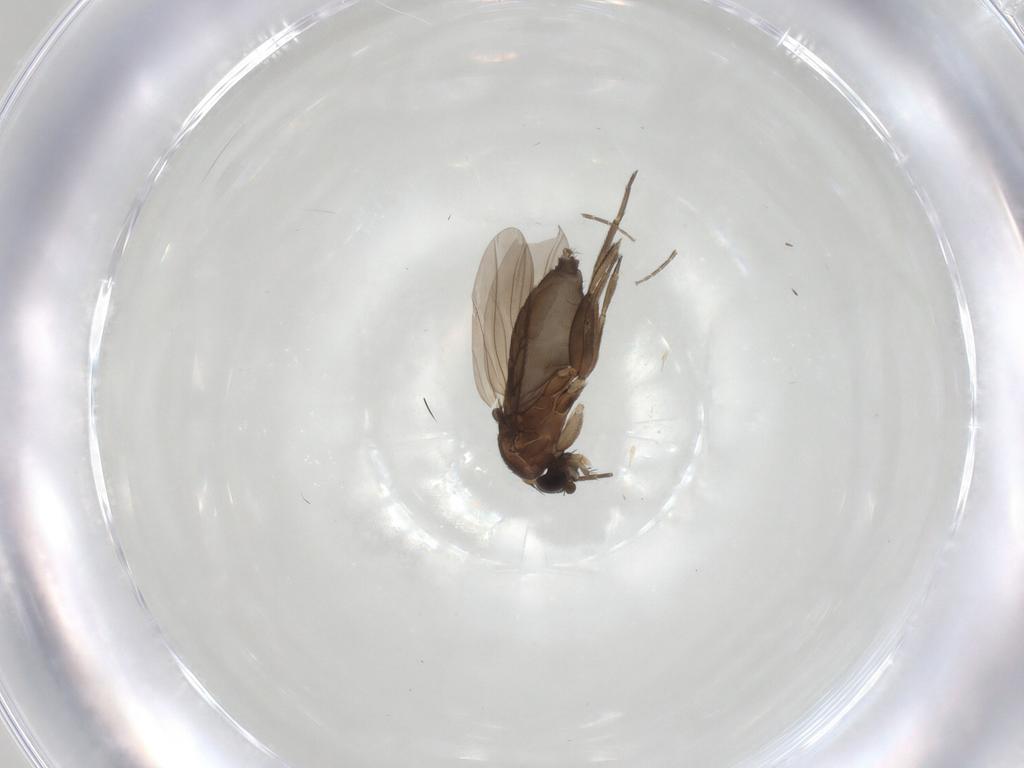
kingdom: Animalia
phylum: Arthropoda
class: Insecta
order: Diptera
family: Phoridae
